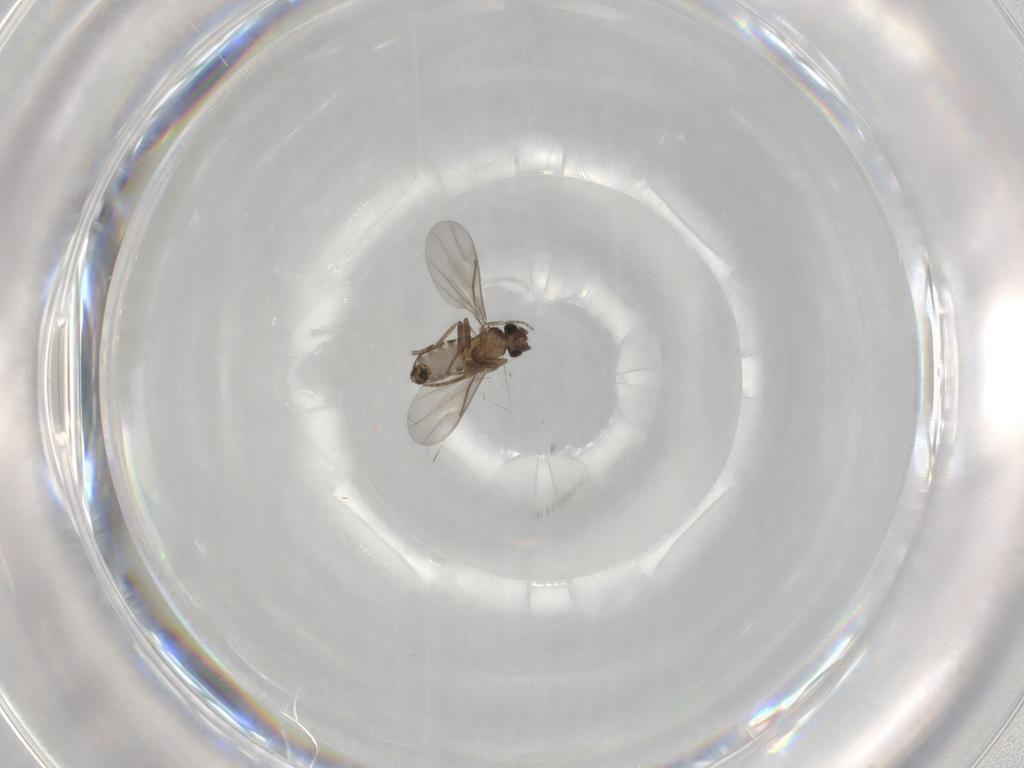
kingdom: Animalia
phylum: Arthropoda
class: Insecta
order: Diptera
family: Chironomidae
